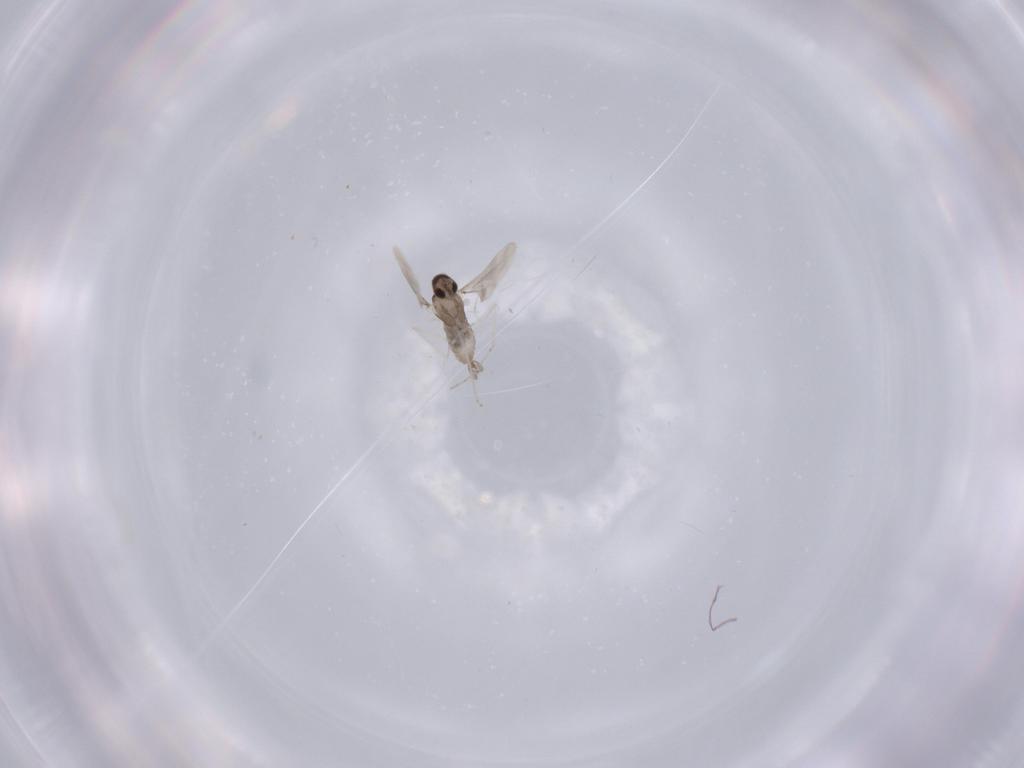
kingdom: Animalia
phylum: Arthropoda
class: Insecta
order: Diptera
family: Cecidomyiidae
